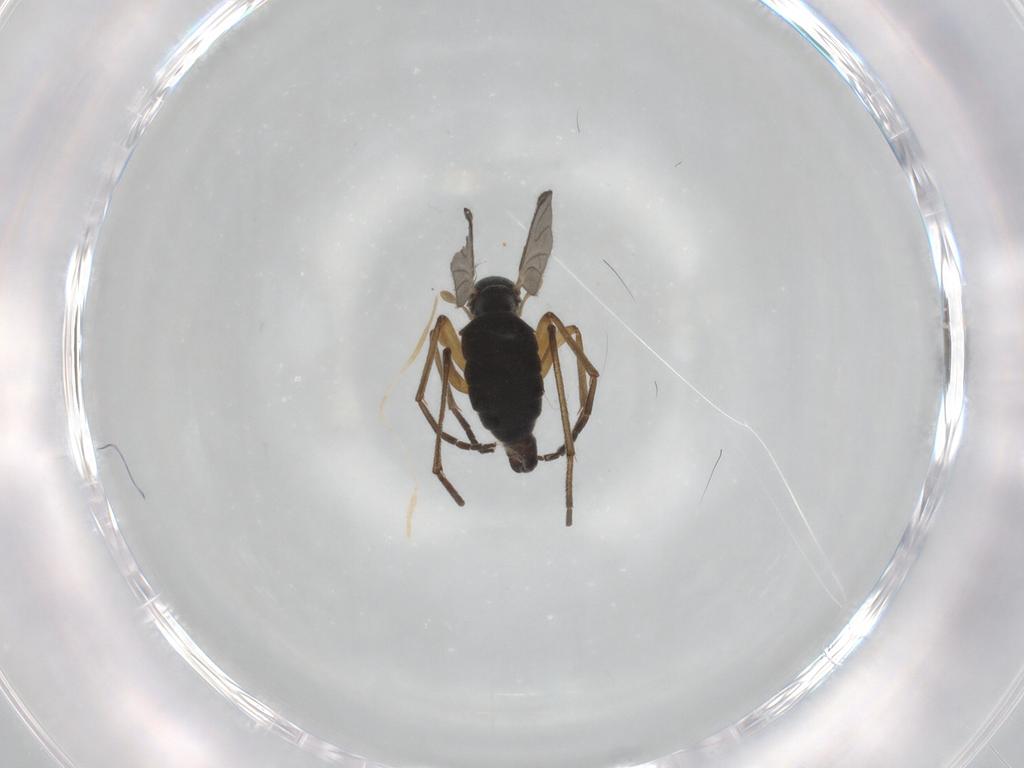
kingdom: Animalia
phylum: Arthropoda
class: Insecta
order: Diptera
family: Sciaridae
